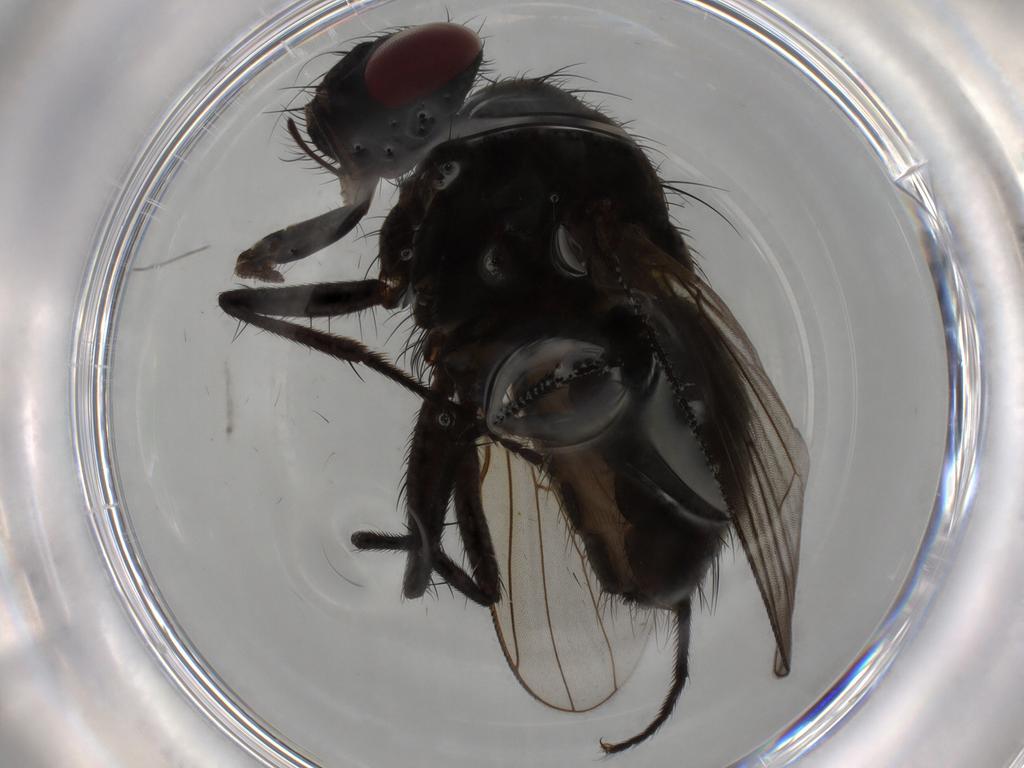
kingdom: Animalia
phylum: Arthropoda
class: Insecta
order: Diptera
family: Muscidae
